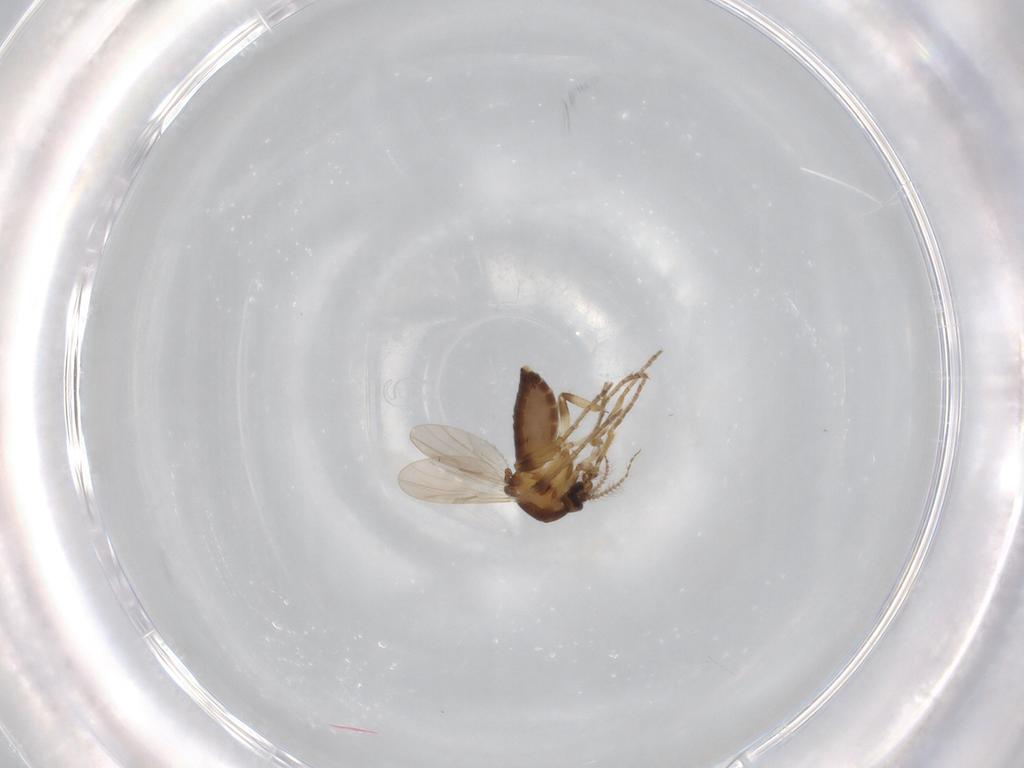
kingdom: Animalia
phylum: Arthropoda
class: Insecta
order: Diptera
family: Ceratopogonidae
